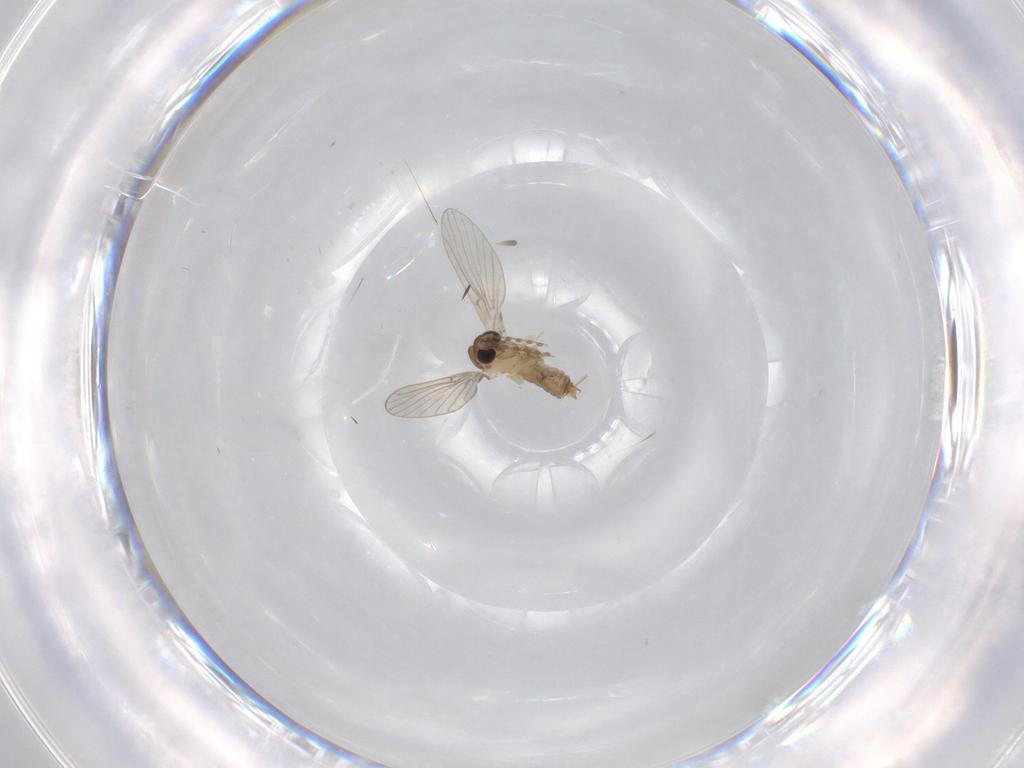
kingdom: Animalia
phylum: Arthropoda
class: Insecta
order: Diptera
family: Psychodidae
